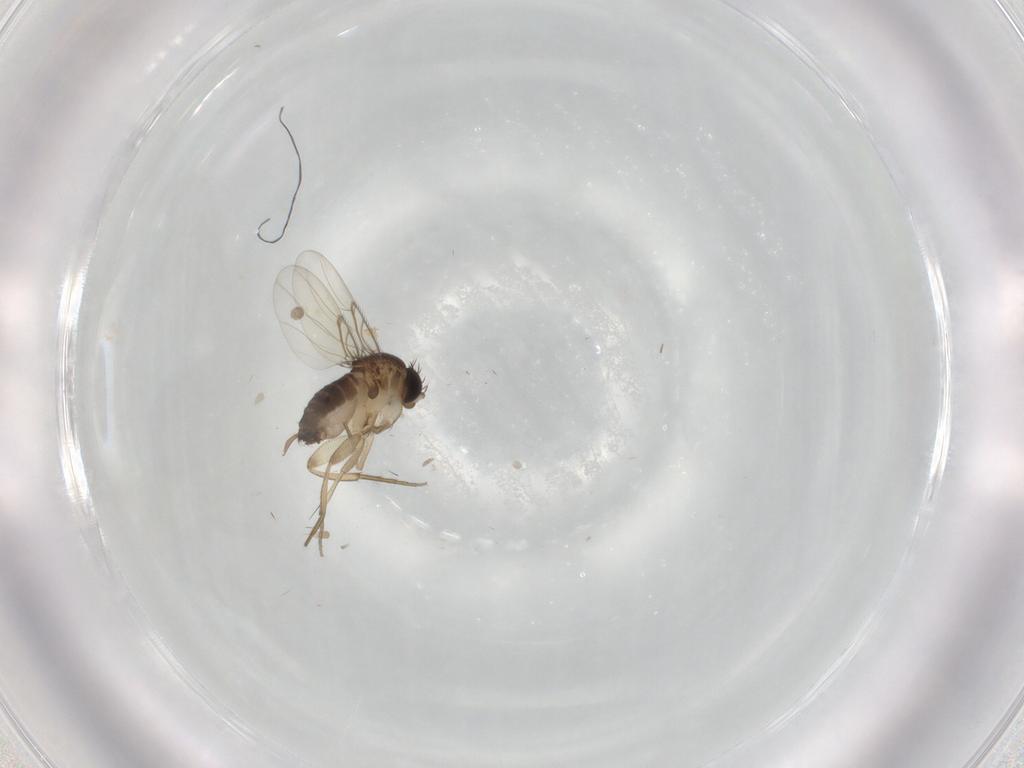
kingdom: Animalia
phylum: Arthropoda
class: Insecta
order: Diptera
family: Phoridae
